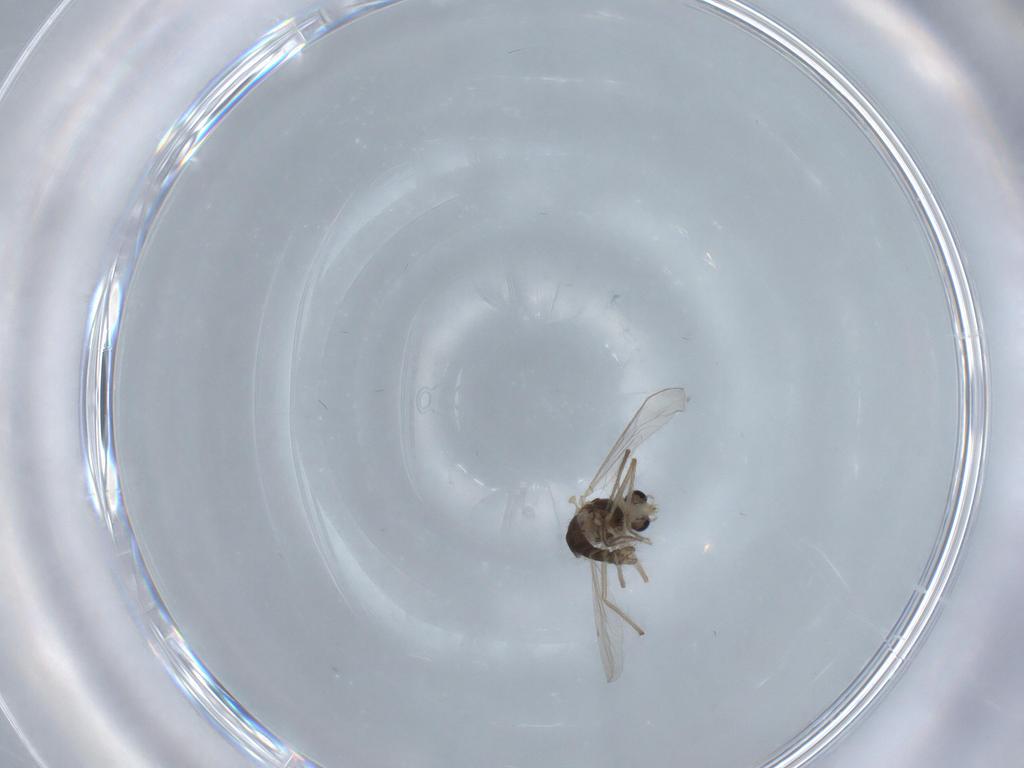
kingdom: Animalia
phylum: Arthropoda
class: Insecta
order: Diptera
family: Chironomidae
